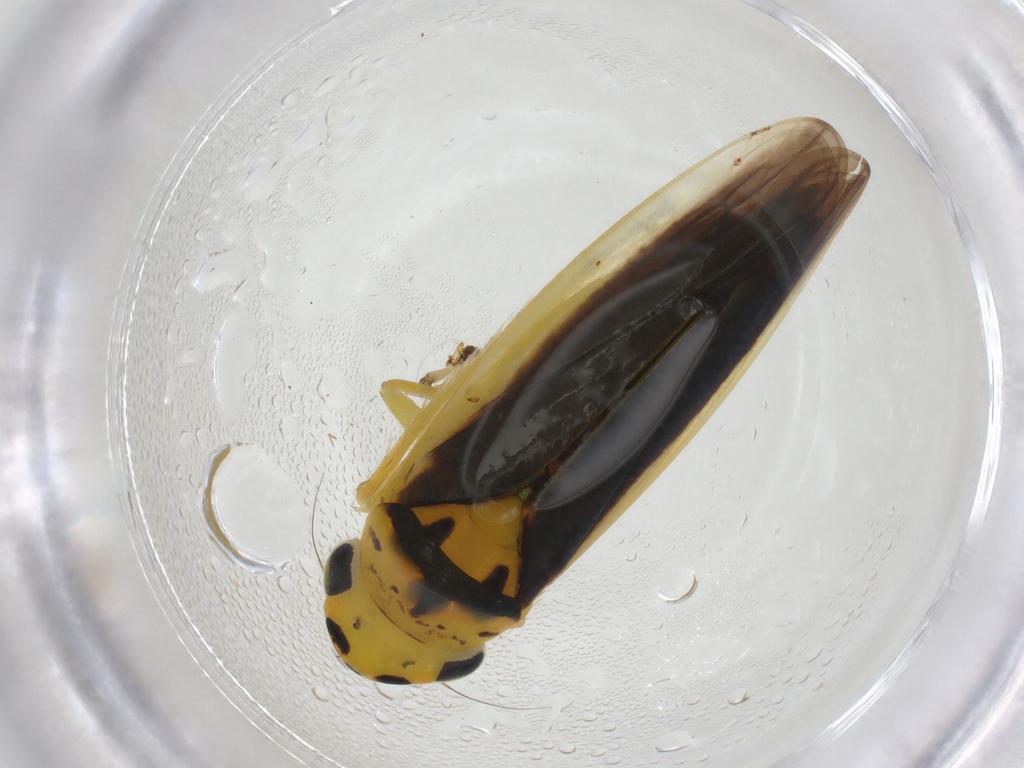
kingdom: Animalia
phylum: Arthropoda
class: Insecta
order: Hemiptera
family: Cicadellidae
